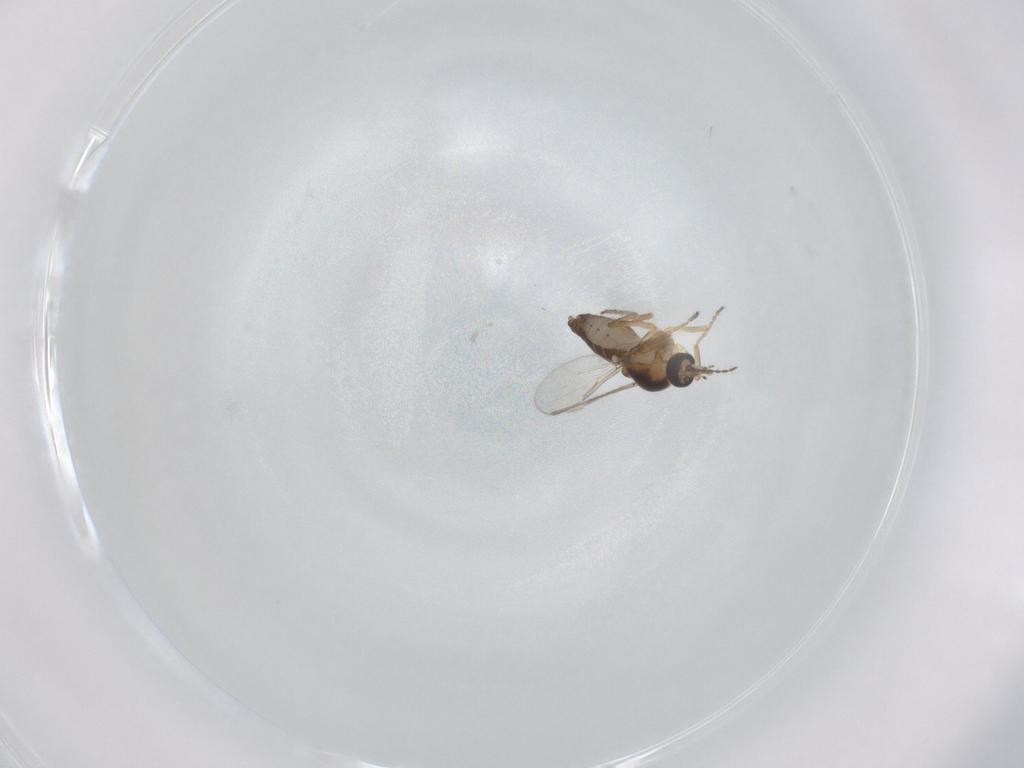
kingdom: Animalia
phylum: Arthropoda
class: Insecta
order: Diptera
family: Ceratopogonidae
